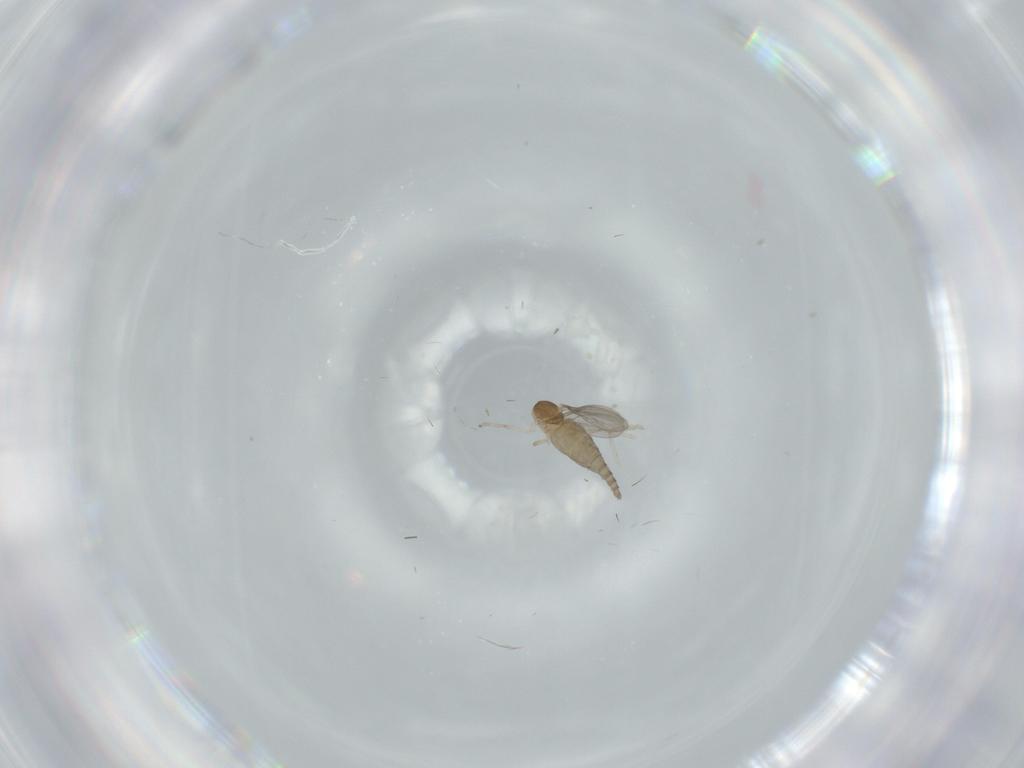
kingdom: Animalia
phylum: Arthropoda
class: Insecta
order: Diptera
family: Cecidomyiidae
